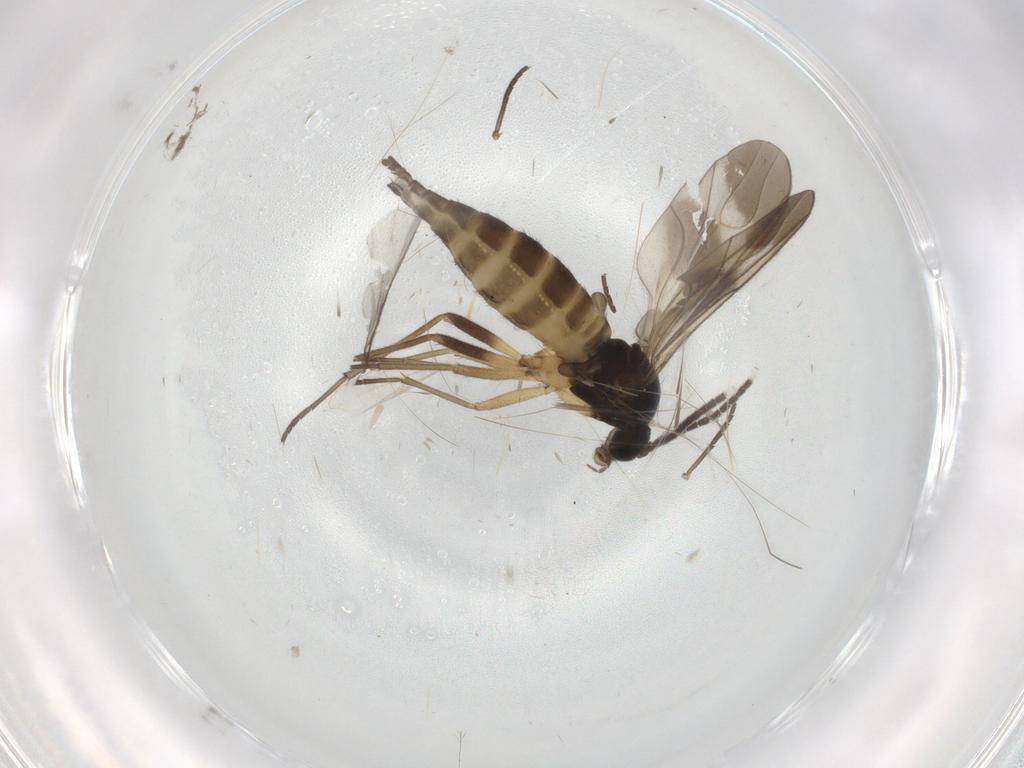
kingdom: Animalia
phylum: Arthropoda
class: Insecta
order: Diptera
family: Sciaridae
